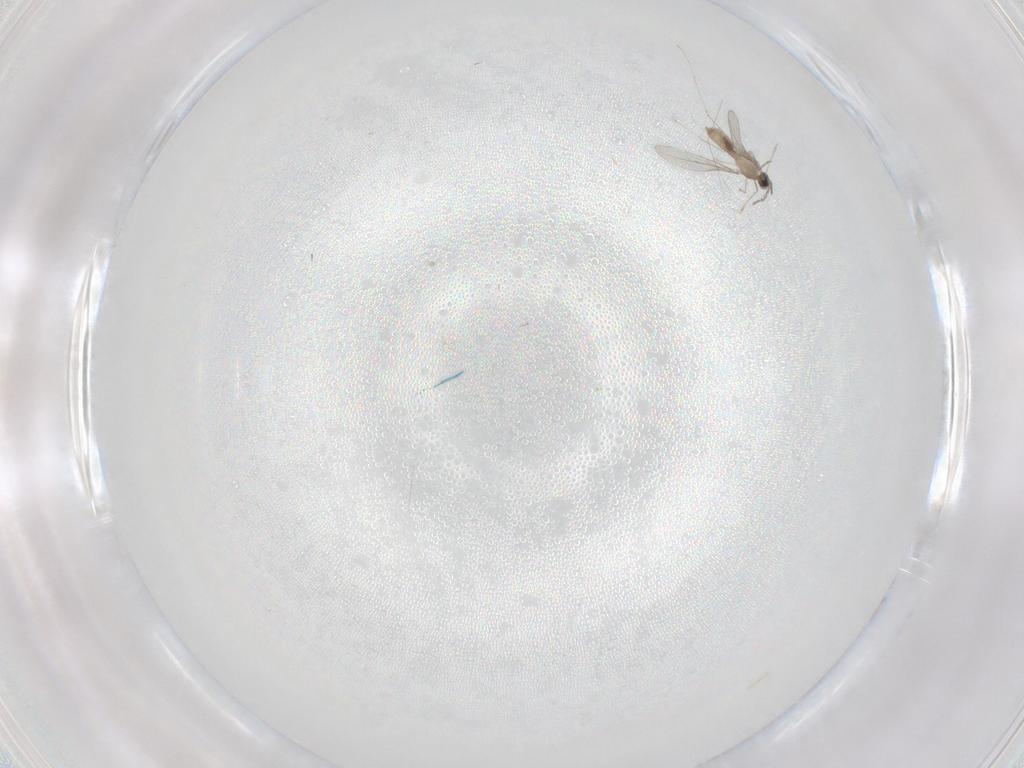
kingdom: Animalia
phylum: Arthropoda
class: Insecta
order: Diptera
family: Cecidomyiidae
